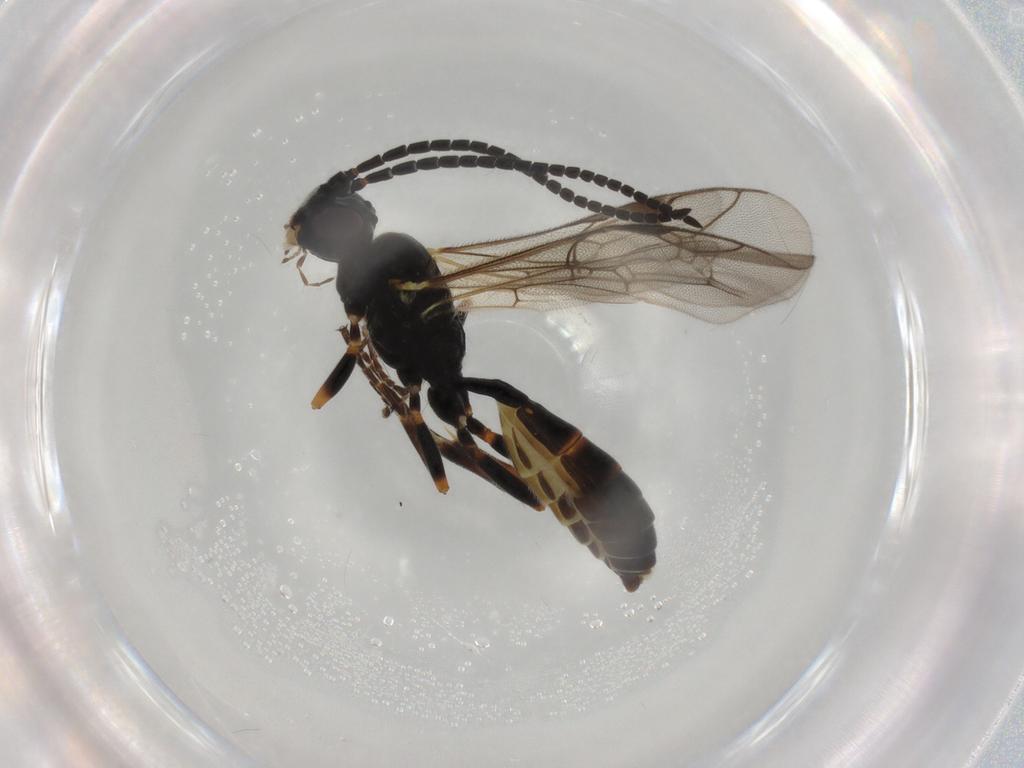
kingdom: Animalia
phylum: Arthropoda
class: Insecta
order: Hymenoptera
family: Ichneumonidae
